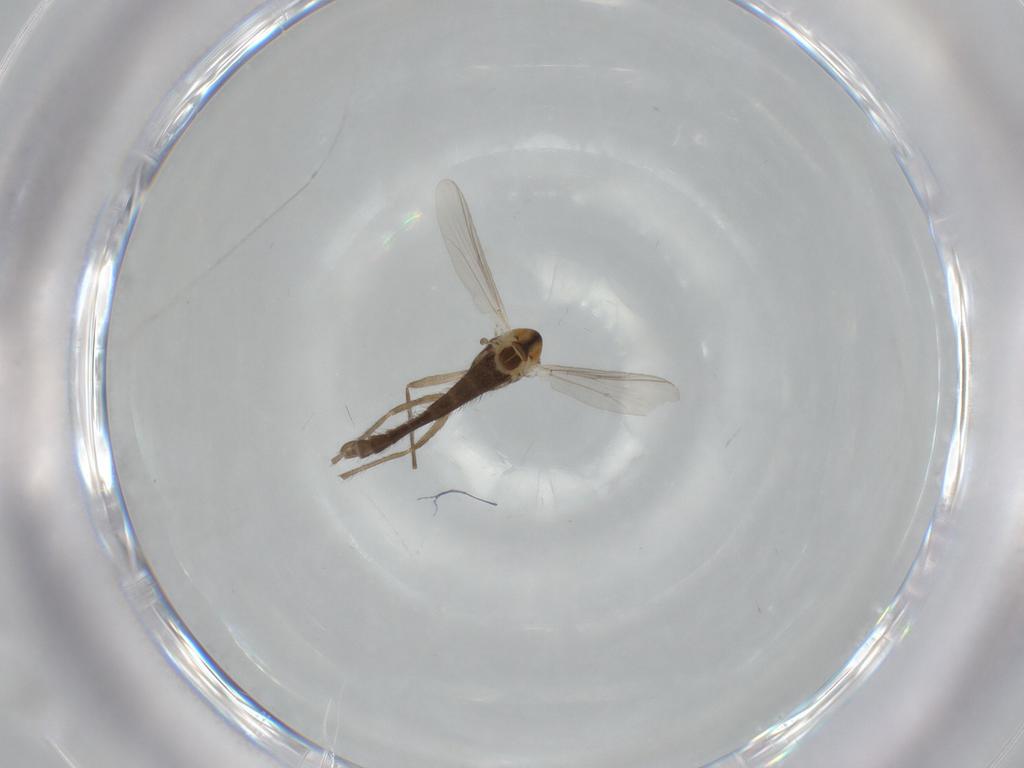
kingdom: Animalia
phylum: Arthropoda
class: Insecta
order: Diptera
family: Chironomidae
